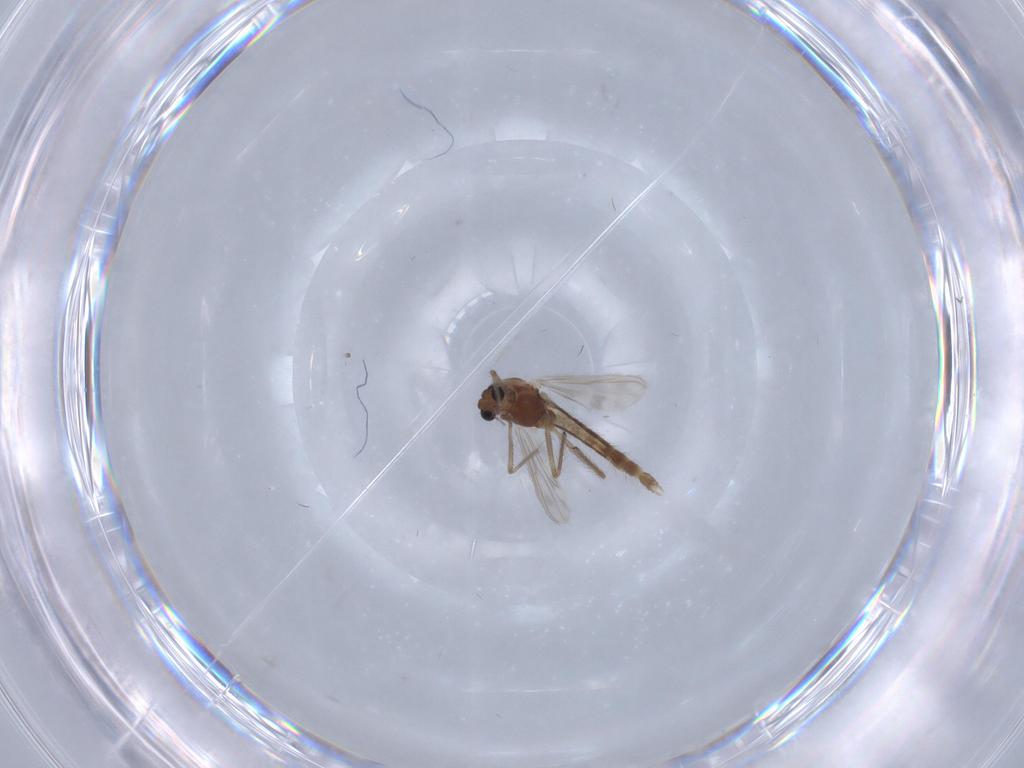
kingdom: Animalia
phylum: Arthropoda
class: Insecta
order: Diptera
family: Chironomidae
